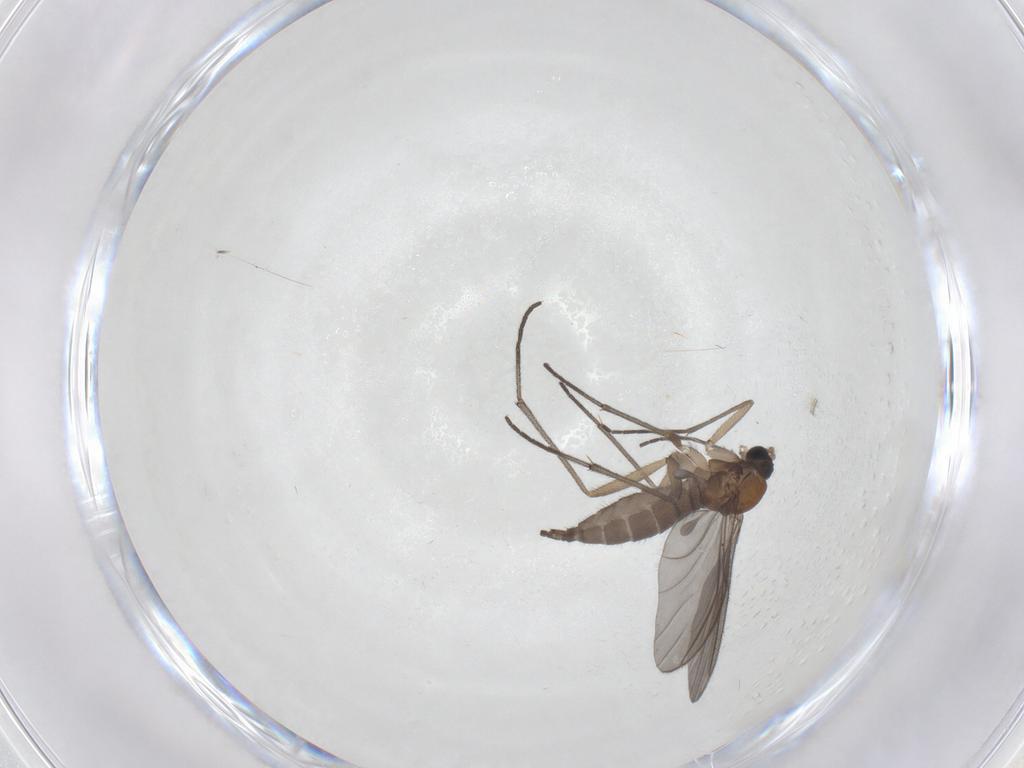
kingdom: Animalia
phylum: Arthropoda
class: Insecta
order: Diptera
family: Sciaridae
